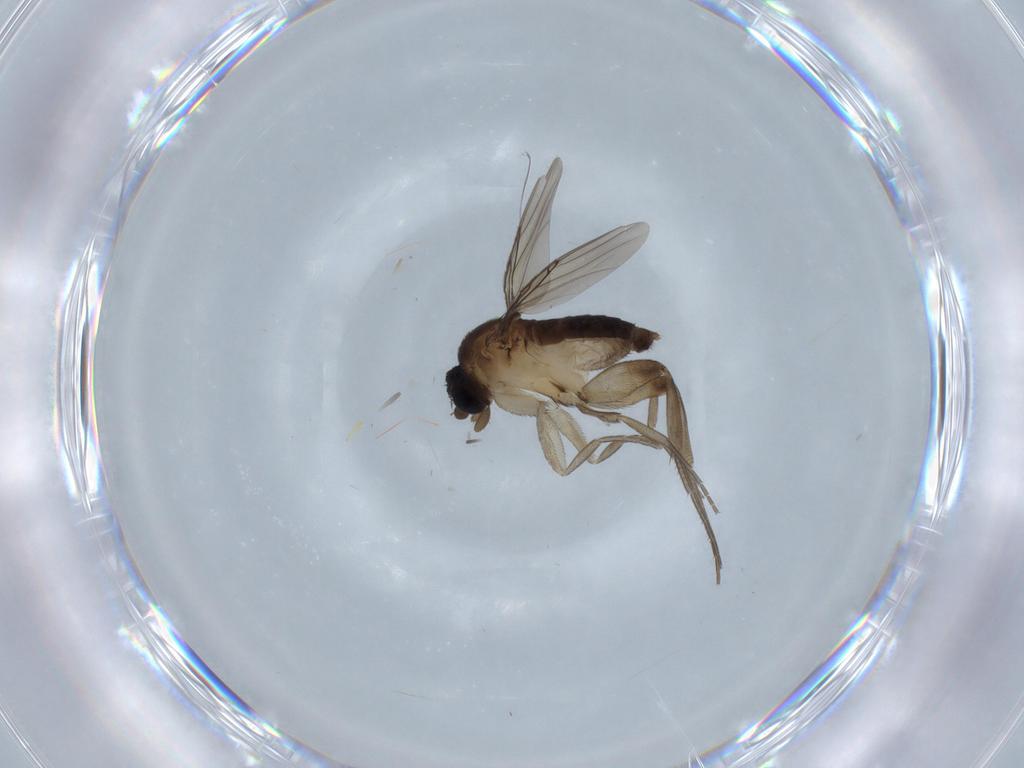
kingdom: Animalia
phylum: Arthropoda
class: Insecta
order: Diptera
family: Phoridae
